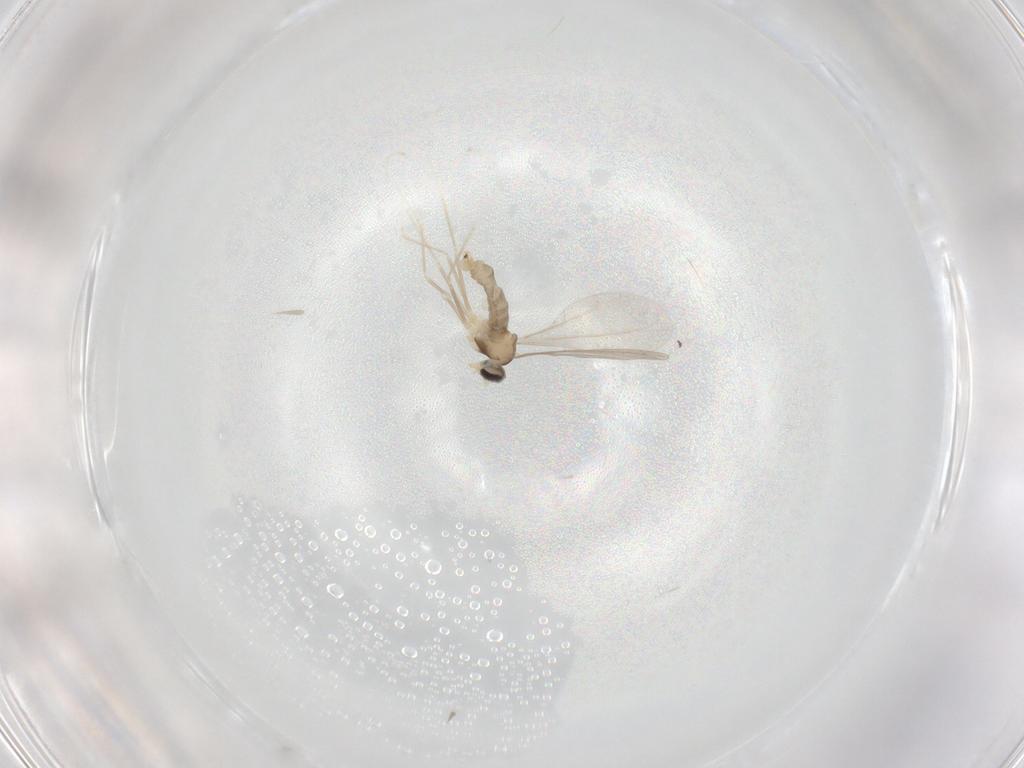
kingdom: Animalia
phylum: Arthropoda
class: Insecta
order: Diptera
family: Cecidomyiidae
